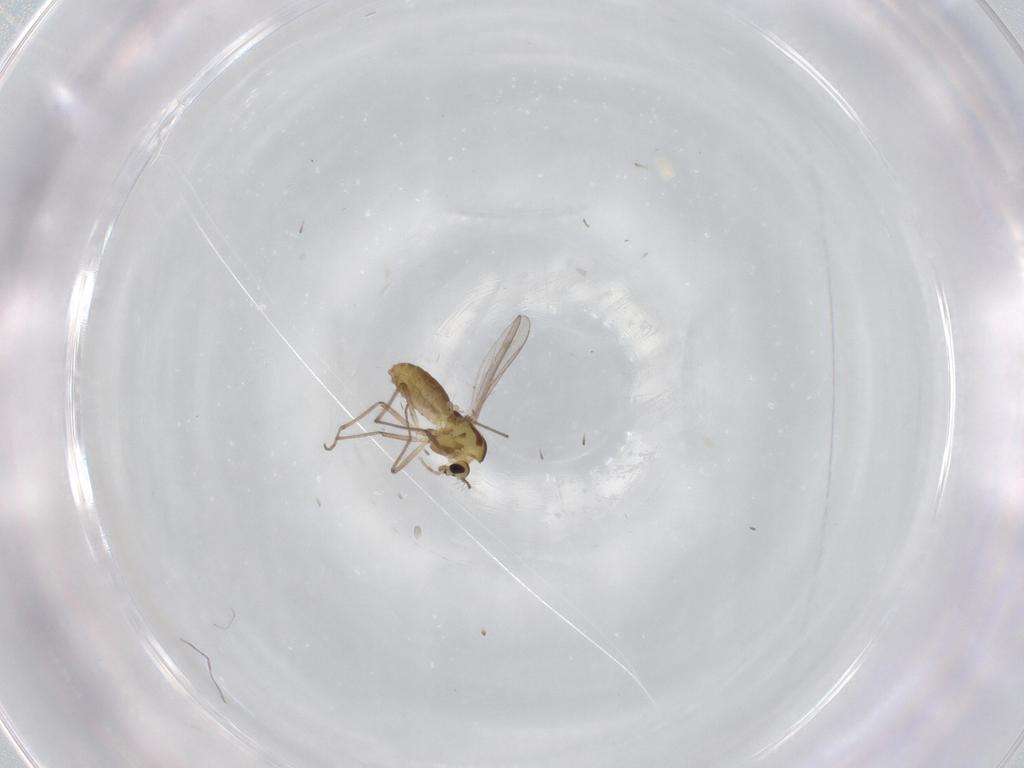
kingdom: Animalia
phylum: Arthropoda
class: Insecta
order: Diptera
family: Chironomidae
